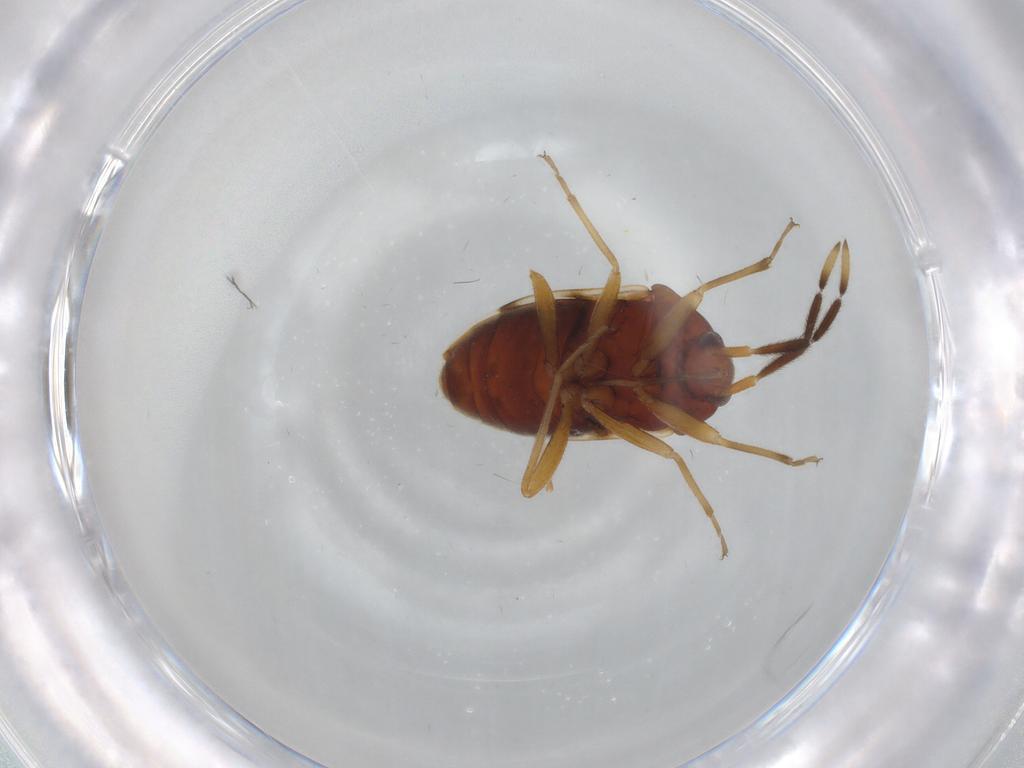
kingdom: Animalia
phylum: Arthropoda
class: Insecta
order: Hemiptera
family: Rhyparochromidae
